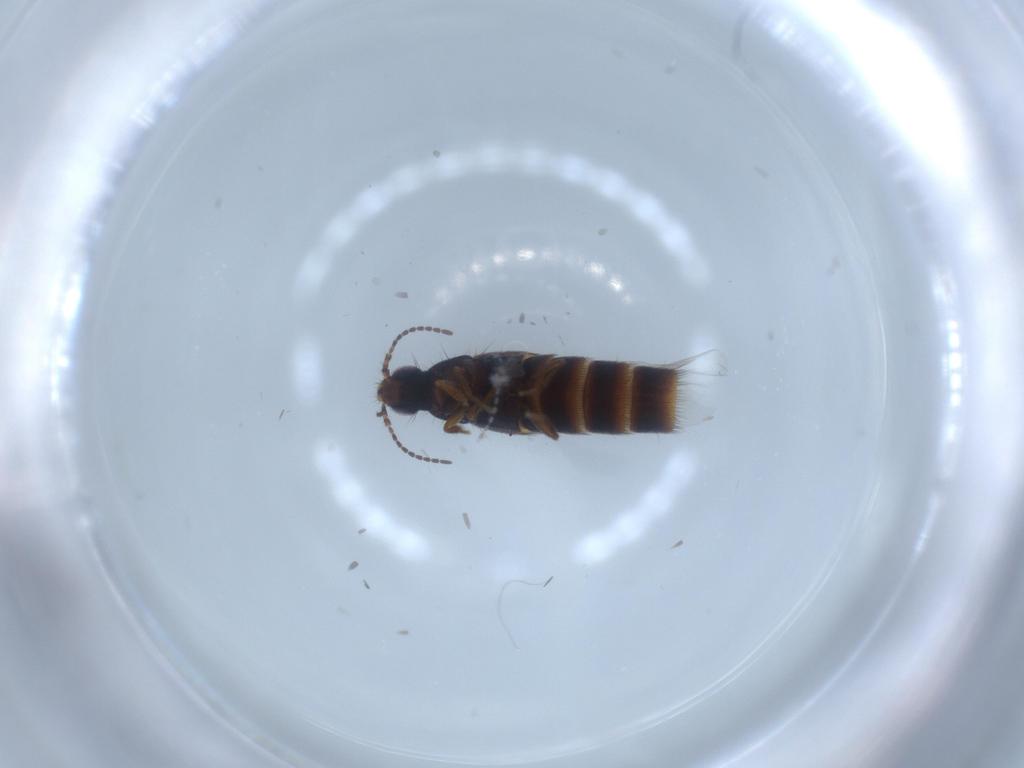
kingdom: Animalia
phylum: Arthropoda
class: Insecta
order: Coleoptera
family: Staphylinidae
